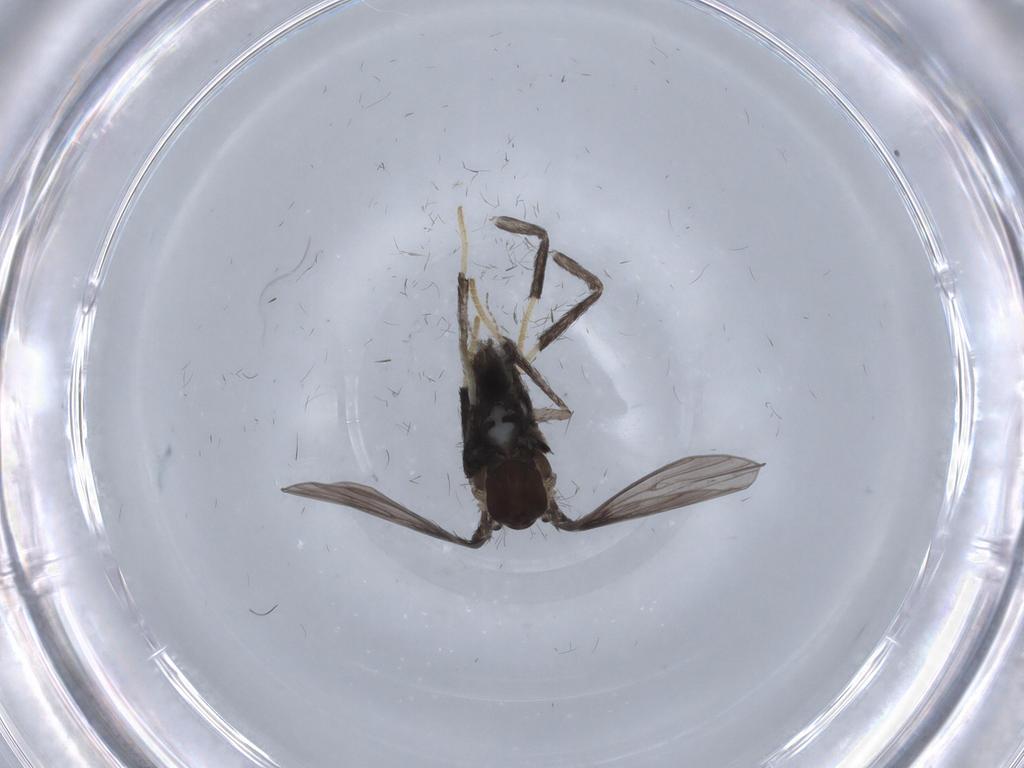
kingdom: Animalia
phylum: Arthropoda
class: Insecta
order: Diptera
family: Psychodidae
